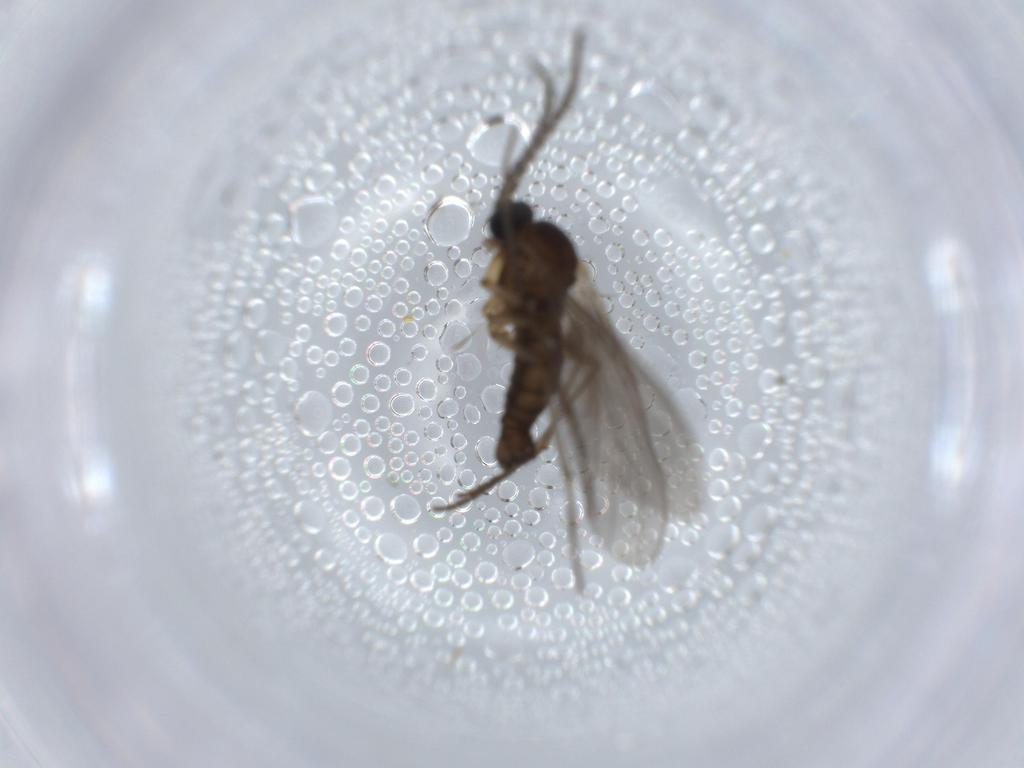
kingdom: Animalia
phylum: Arthropoda
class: Insecta
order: Diptera
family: Sciaridae
